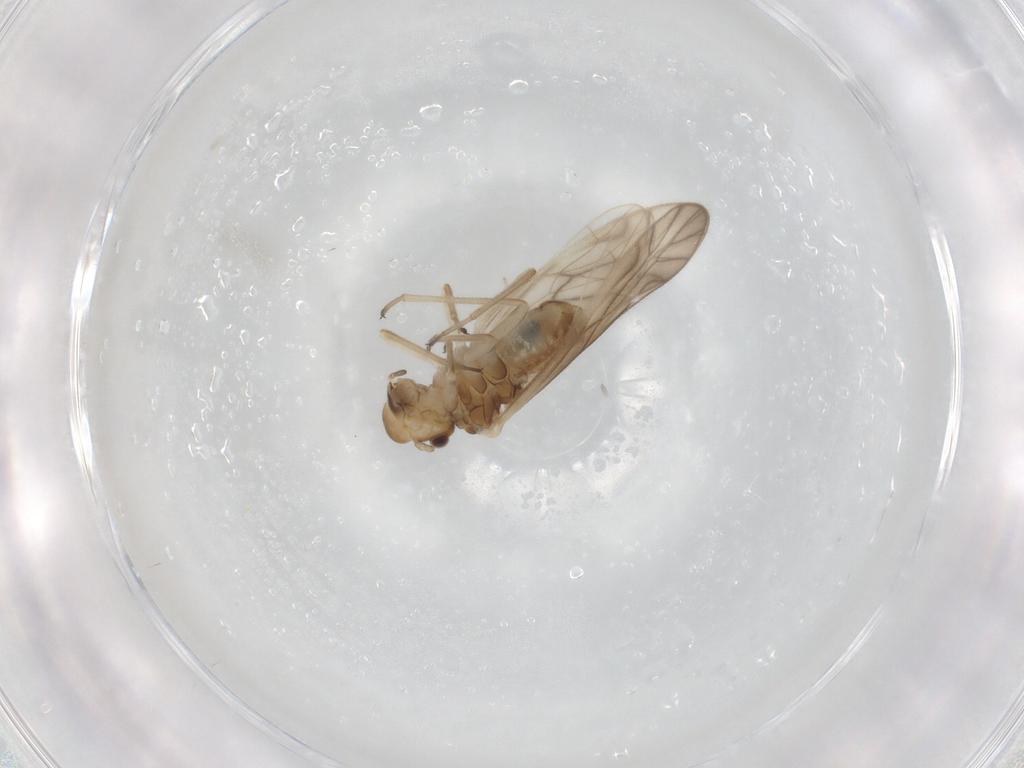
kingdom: Animalia
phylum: Arthropoda
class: Insecta
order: Psocodea
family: Philotarsidae
